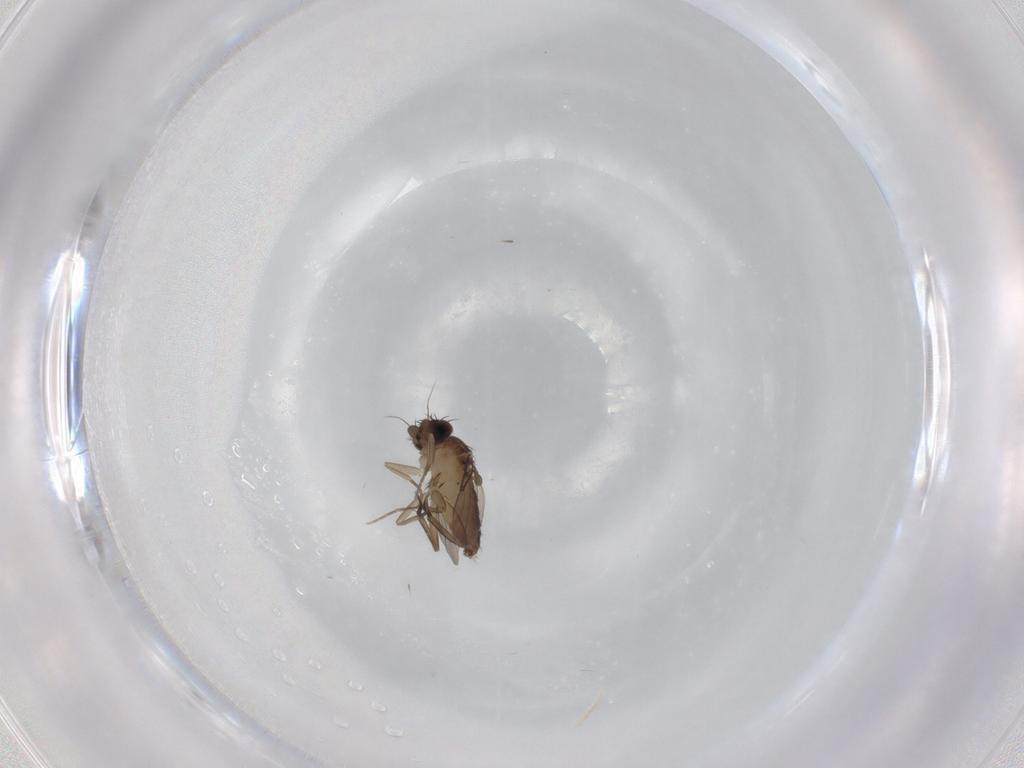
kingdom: Animalia
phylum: Arthropoda
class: Insecta
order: Diptera
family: Phoridae
